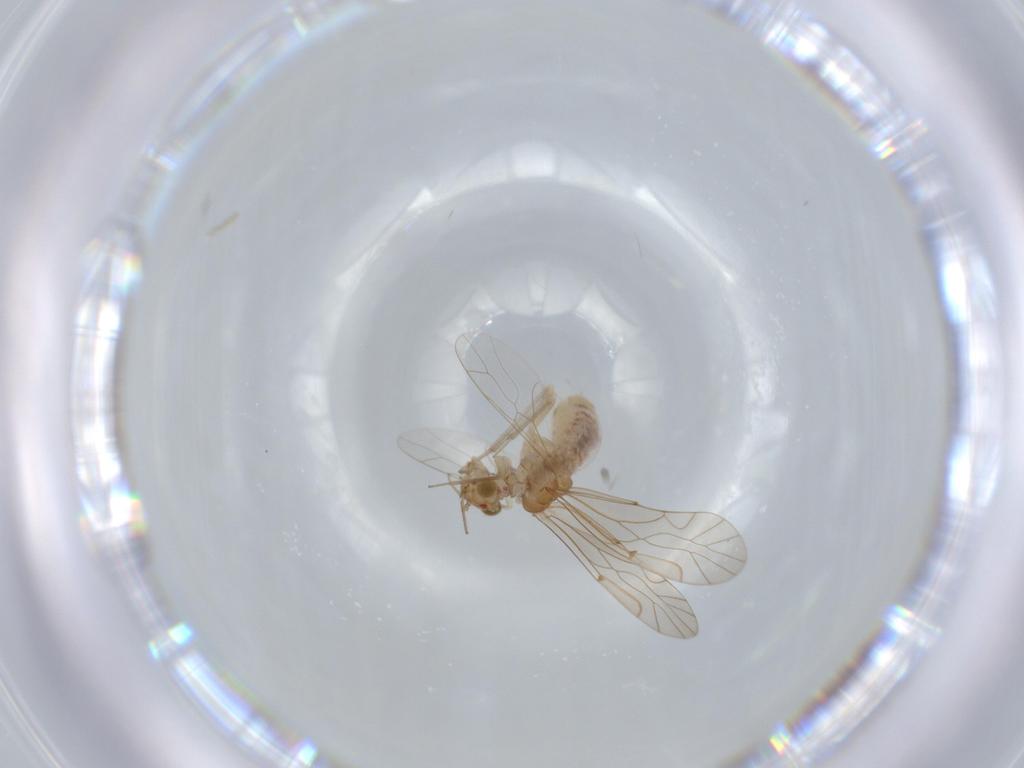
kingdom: Animalia
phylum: Arthropoda
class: Insecta
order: Psocodea
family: Lachesillidae
